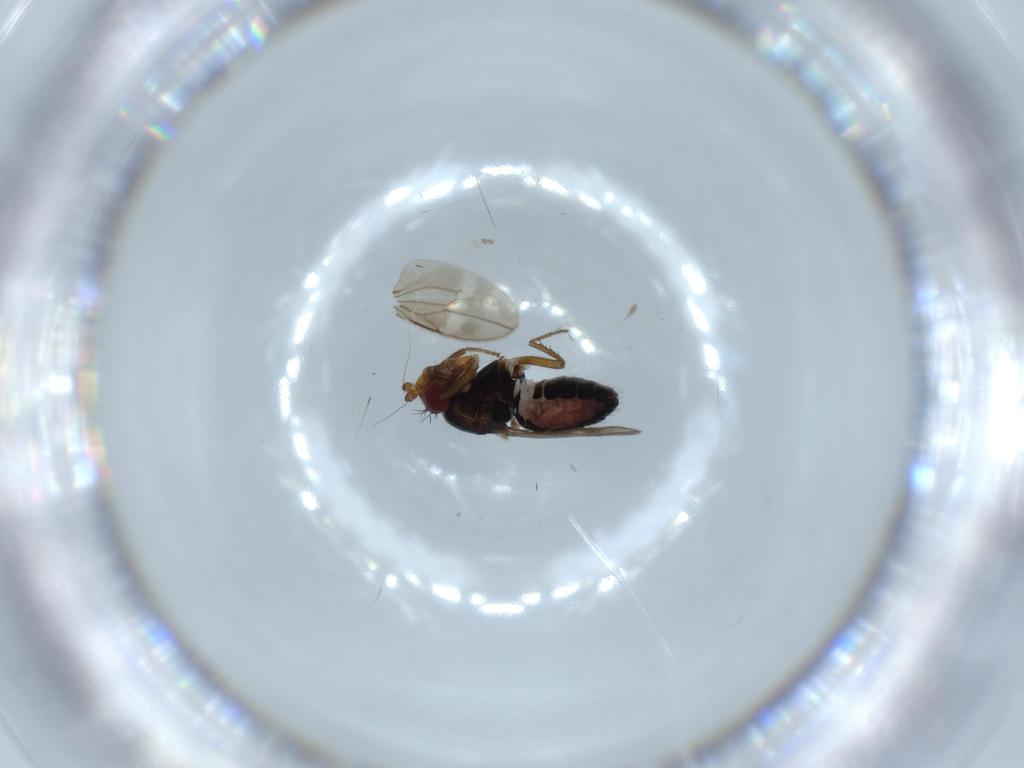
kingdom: Animalia
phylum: Arthropoda
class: Insecta
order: Diptera
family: Sphaeroceridae
